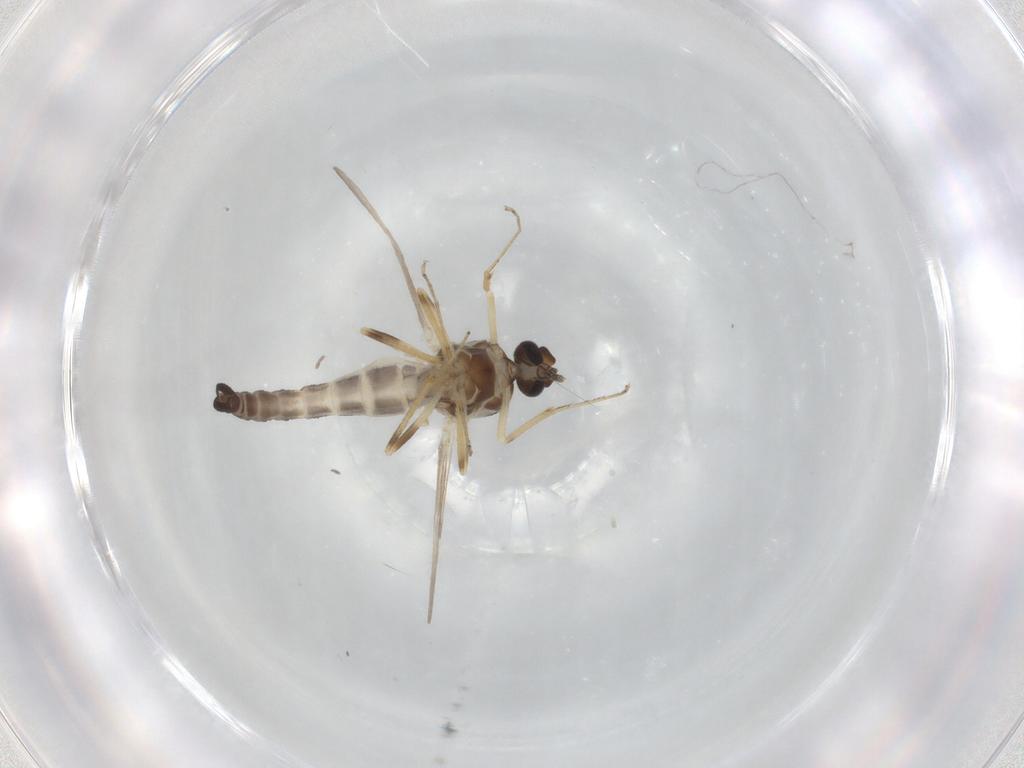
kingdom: Animalia
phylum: Arthropoda
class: Insecta
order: Diptera
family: Ceratopogonidae
